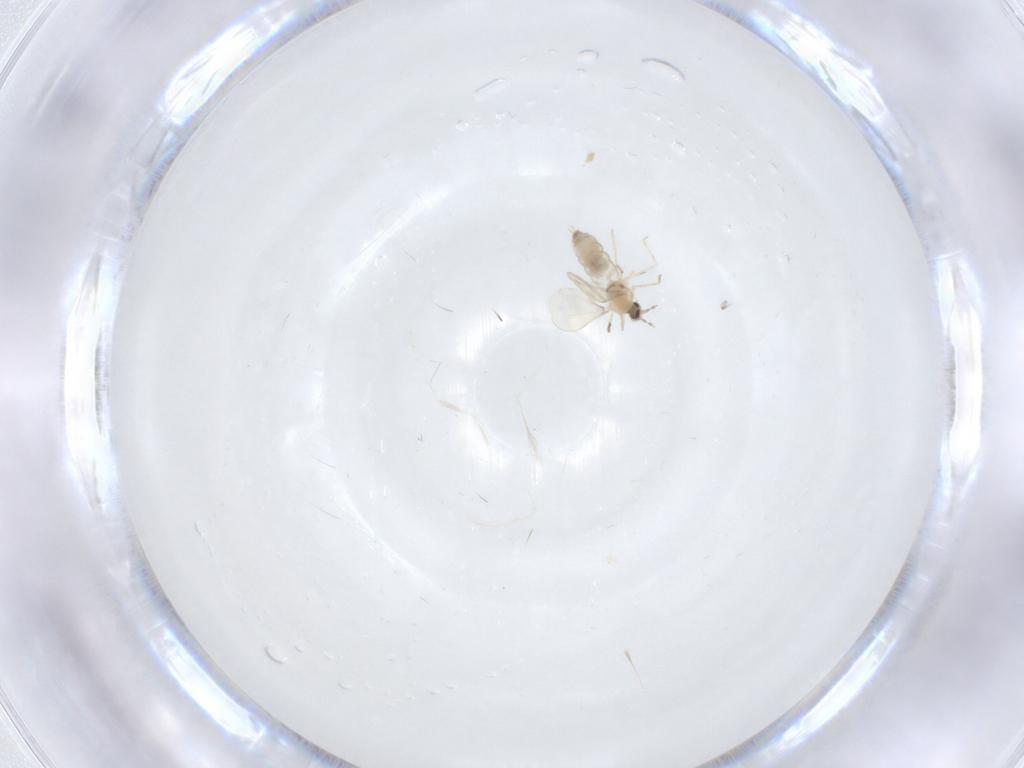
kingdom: Animalia
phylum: Arthropoda
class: Insecta
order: Diptera
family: Cecidomyiidae
